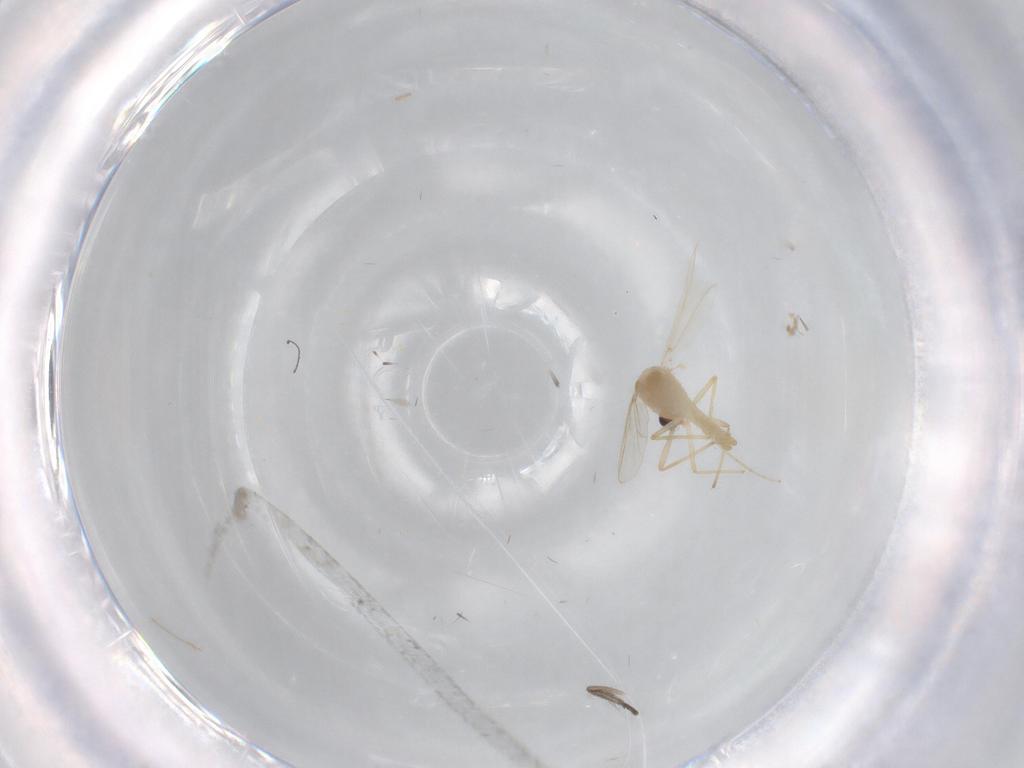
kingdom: Animalia
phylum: Arthropoda
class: Insecta
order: Diptera
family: Chironomidae
